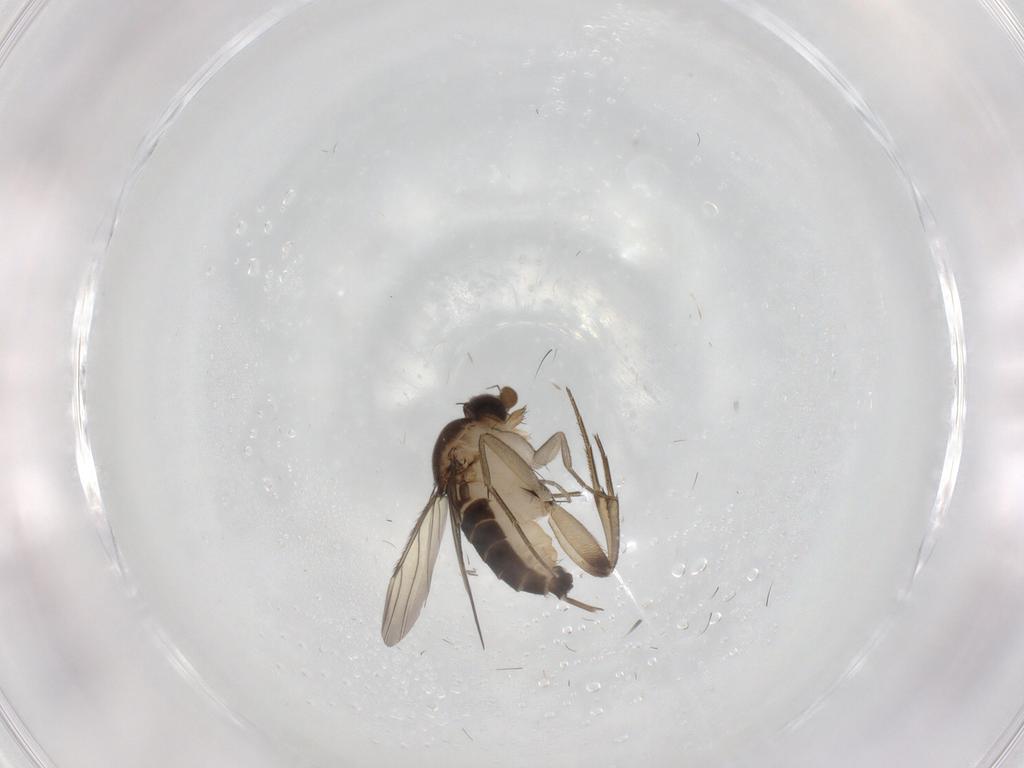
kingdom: Animalia
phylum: Arthropoda
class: Insecta
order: Diptera
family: Phoridae
